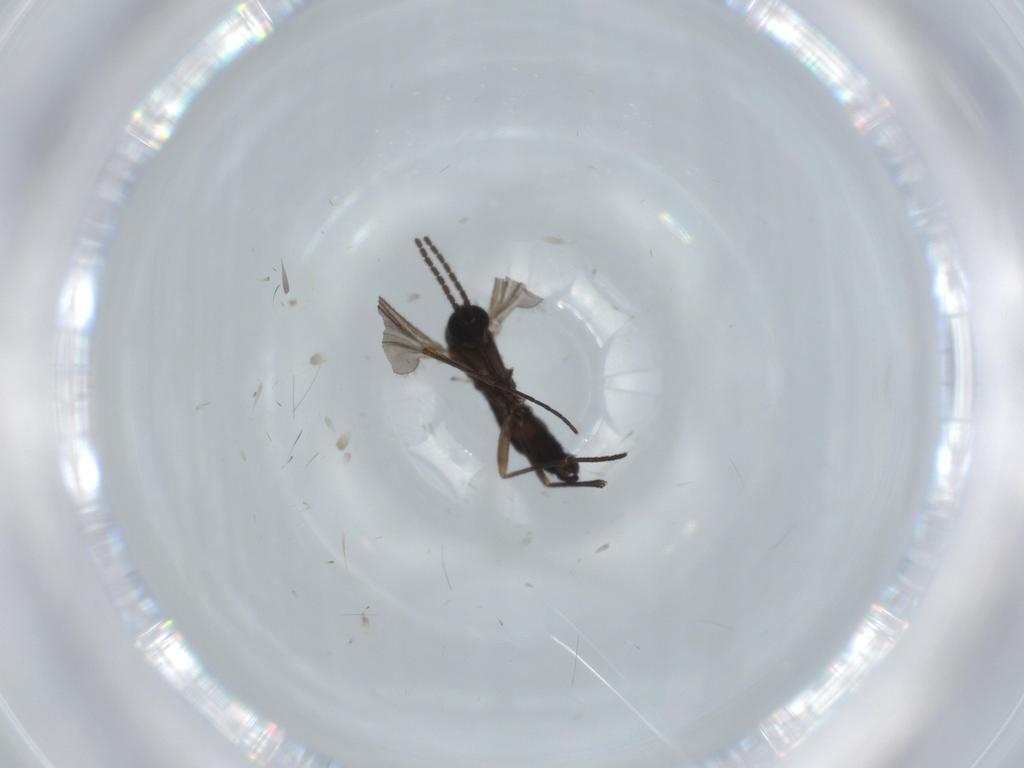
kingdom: Animalia
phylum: Arthropoda
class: Insecta
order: Diptera
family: Sciaridae
